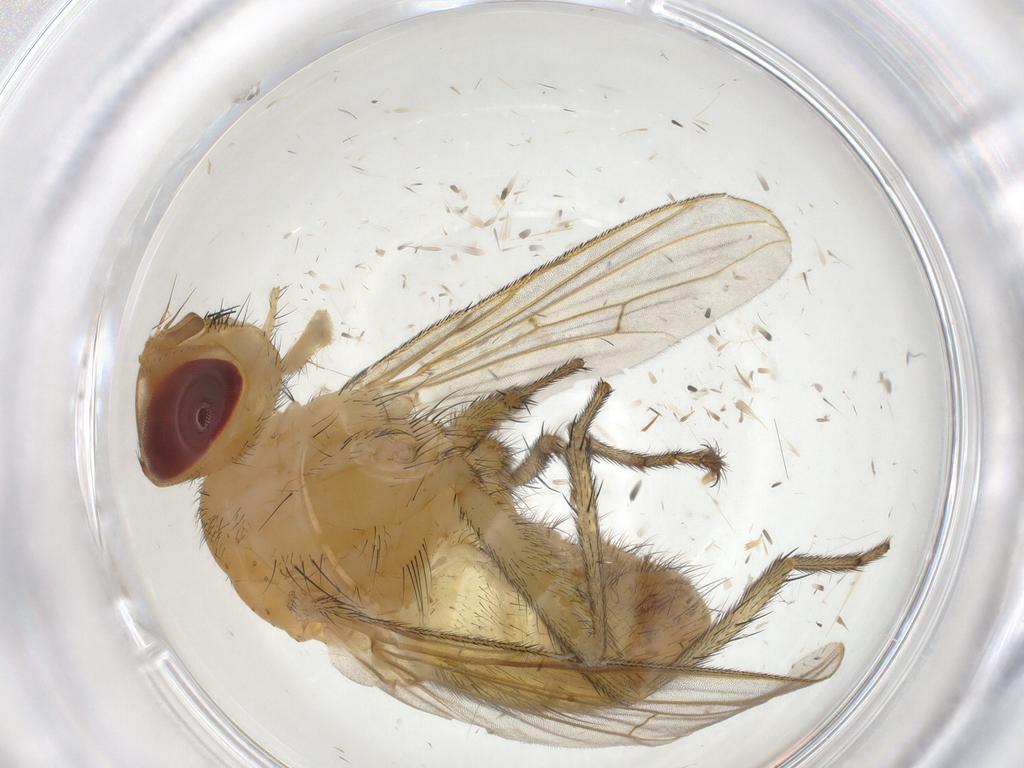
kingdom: Animalia
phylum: Arthropoda
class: Insecta
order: Diptera
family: Tachinidae
